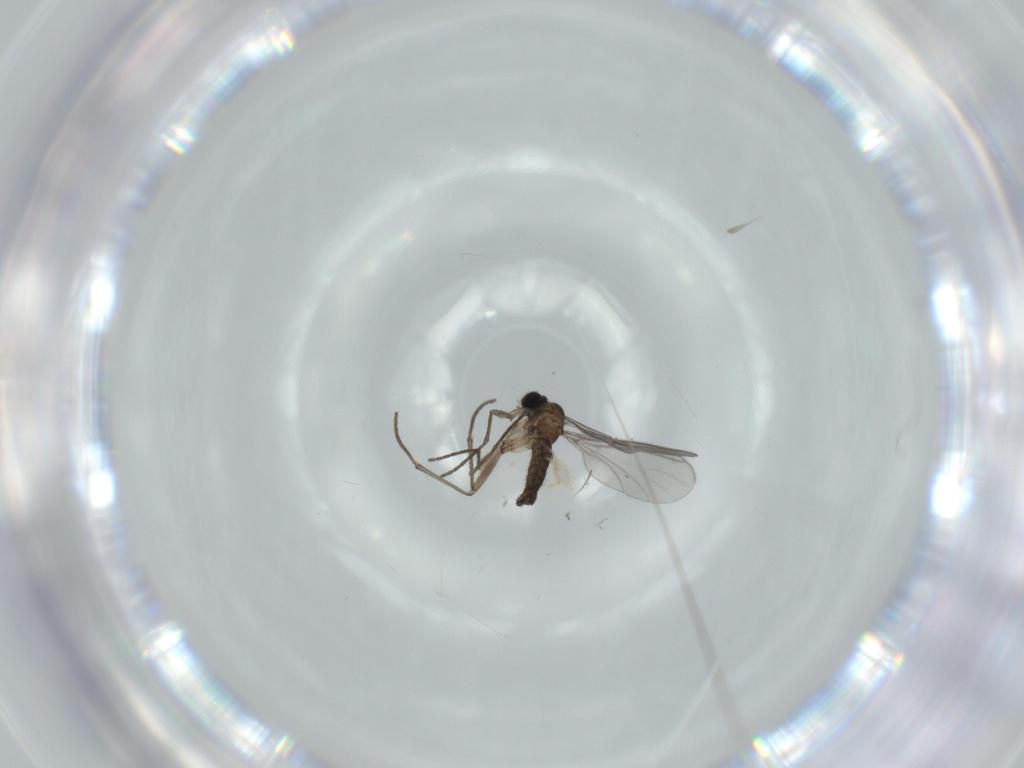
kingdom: Animalia
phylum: Arthropoda
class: Insecta
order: Diptera
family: Sciaridae
